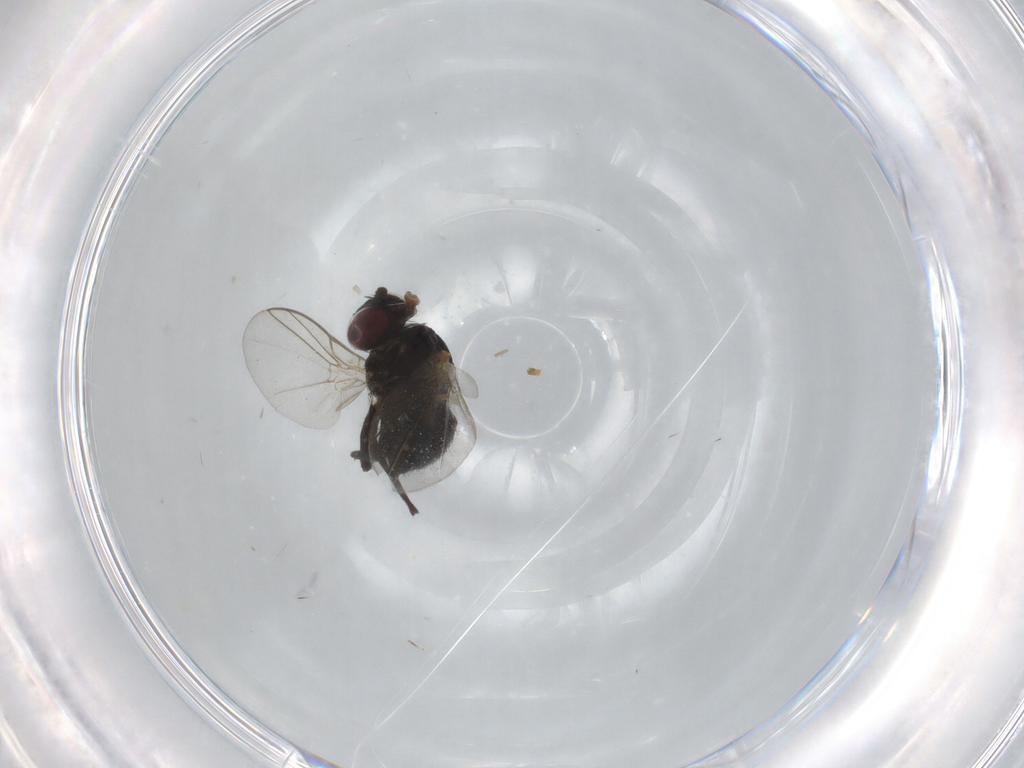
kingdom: Animalia
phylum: Arthropoda
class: Insecta
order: Diptera
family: Agromyzidae
